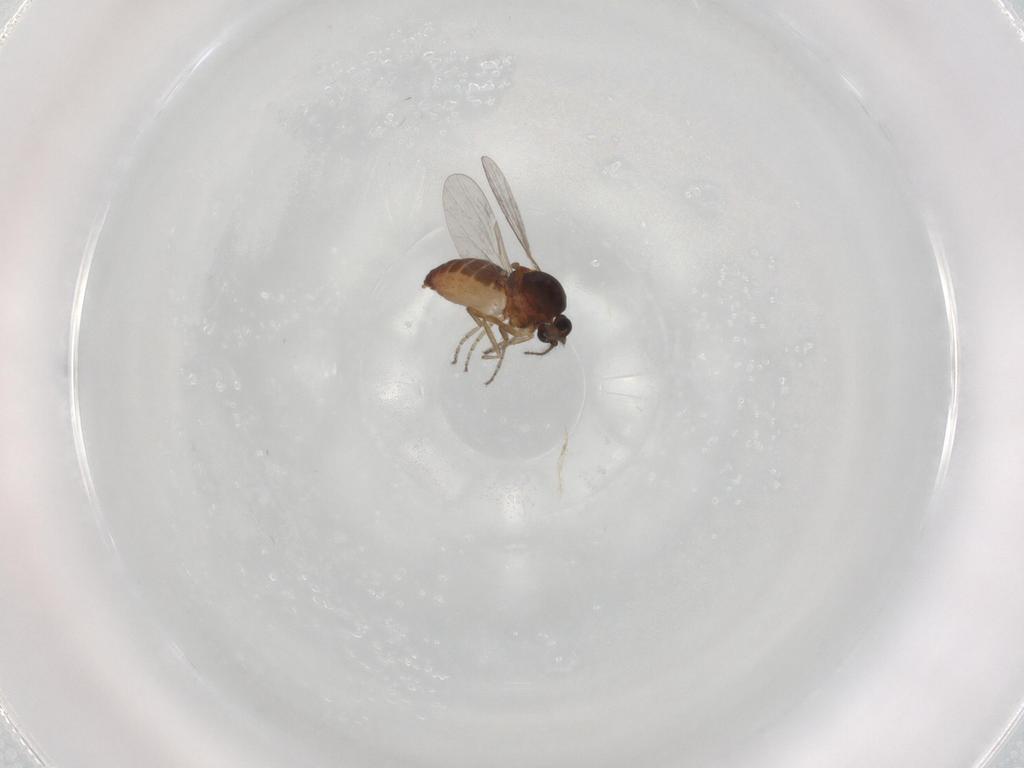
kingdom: Animalia
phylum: Arthropoda
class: Insecta
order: Diptera
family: Ceratopogonidae
